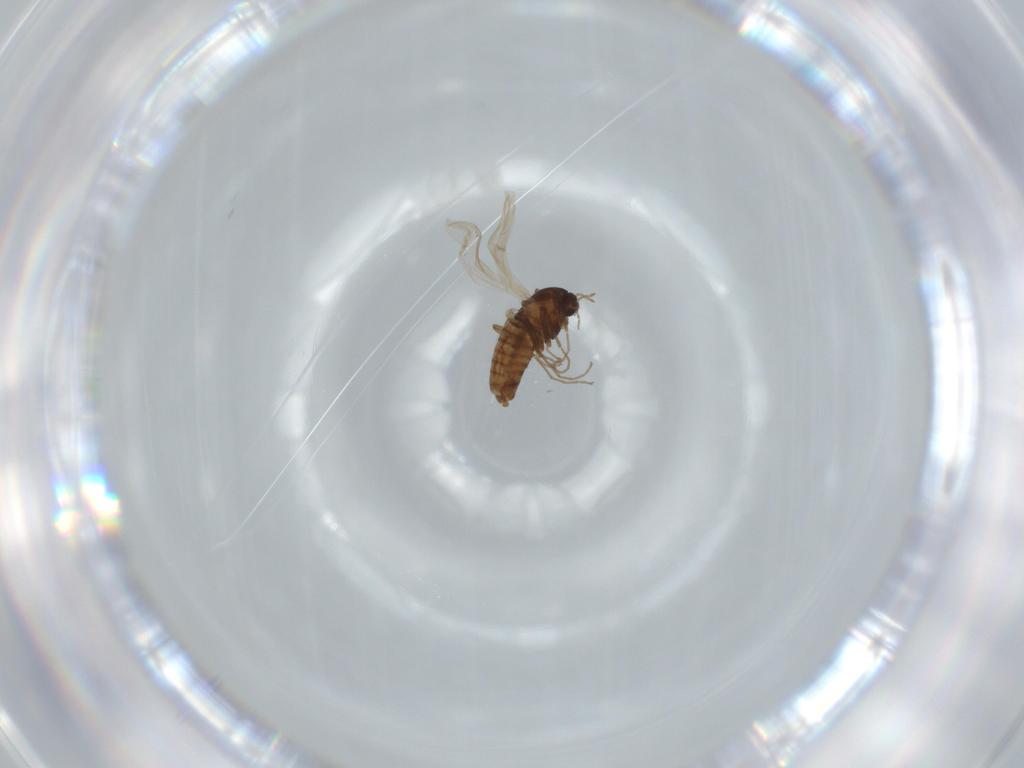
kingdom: Animalia
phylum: Arthropoda
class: Insecta
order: Diptera
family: Chironomidae
